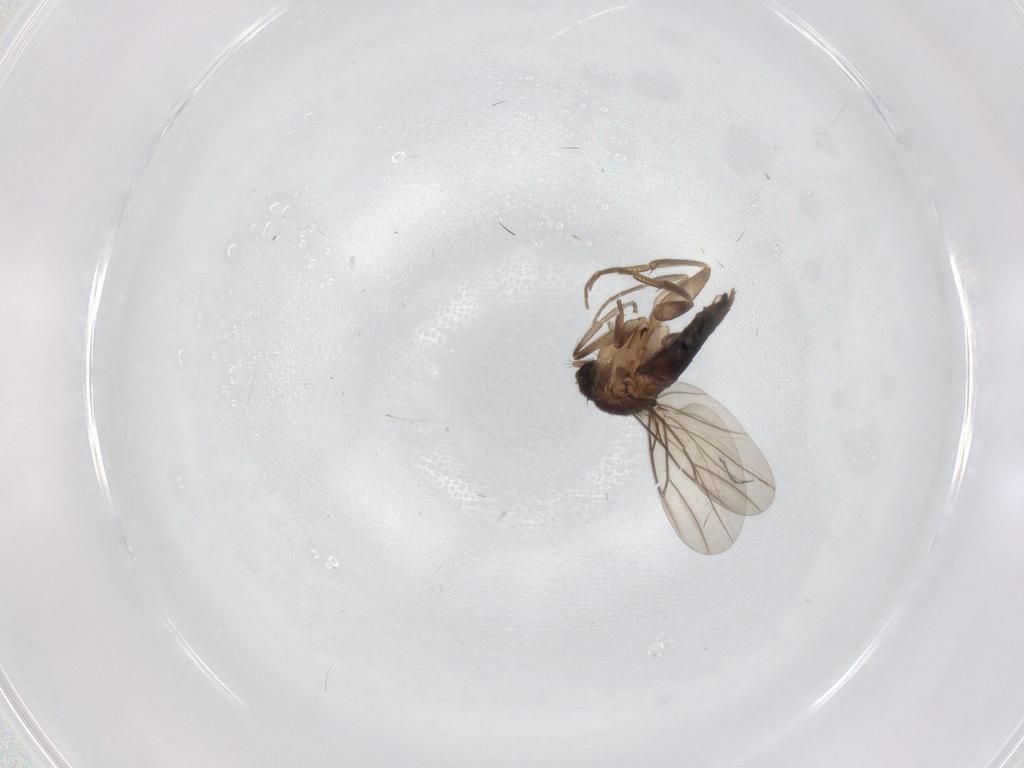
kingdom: Animalia
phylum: Arthropoda
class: Insecta
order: Diptera
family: Phoridae
